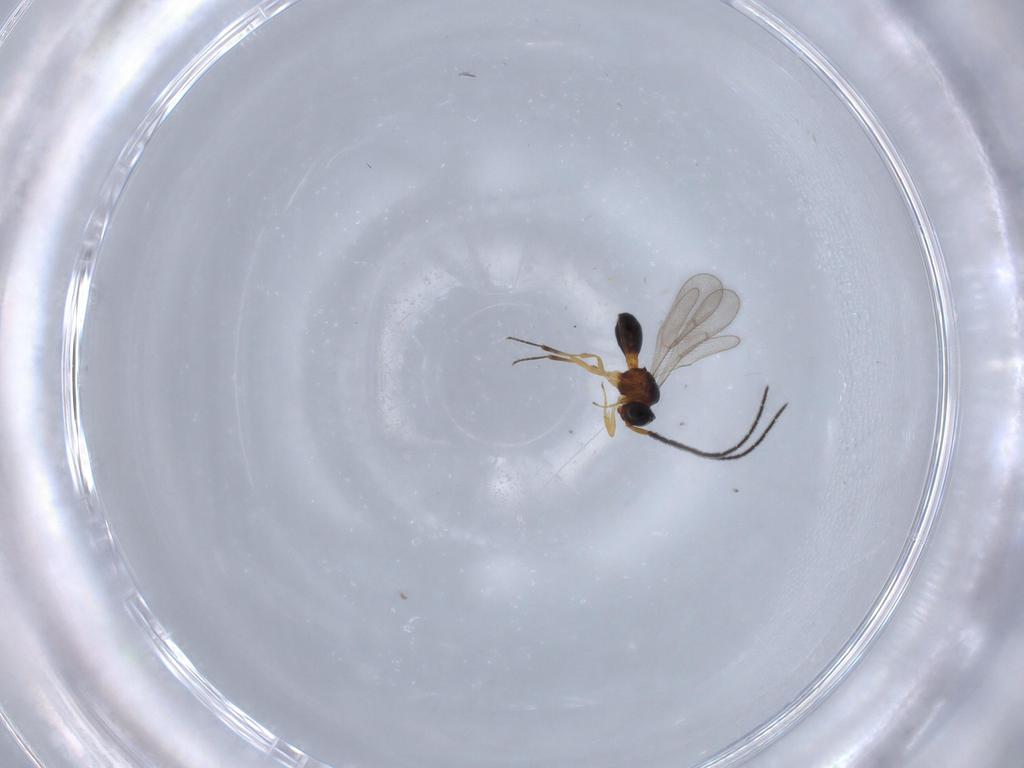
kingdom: Animalia
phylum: Arthropoda
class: Insecta
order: Hymenoptera
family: Scelionidae
